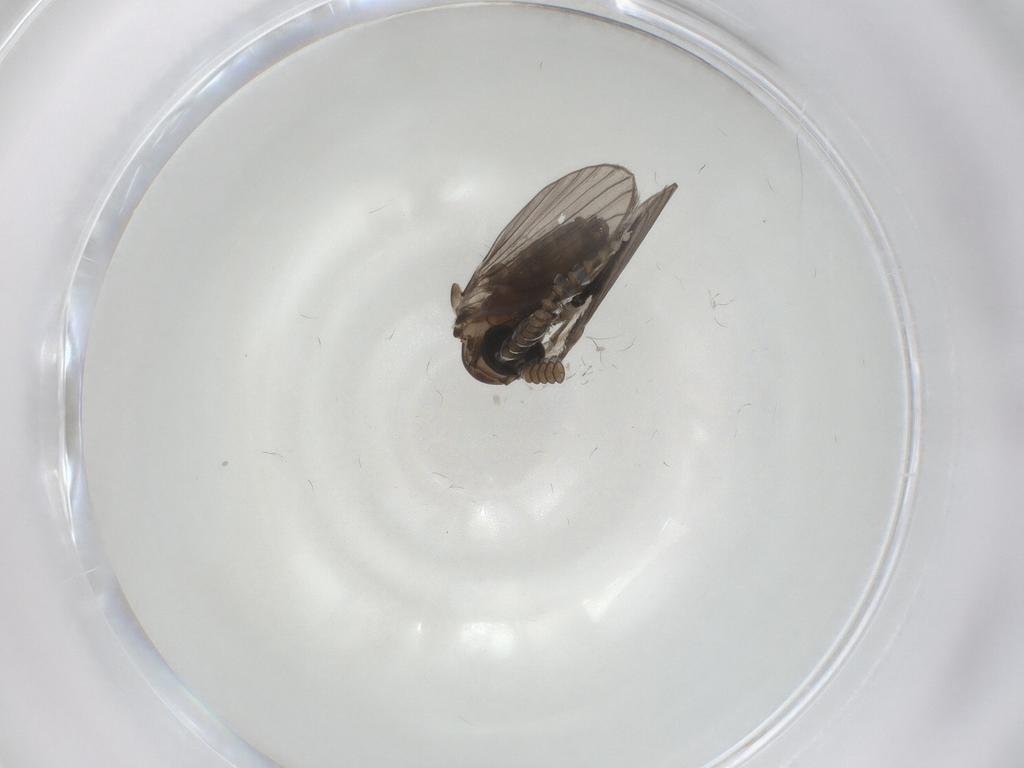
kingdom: Animalia
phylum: Arthropoda
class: Insecta
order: Diptera
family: Psychodidae
